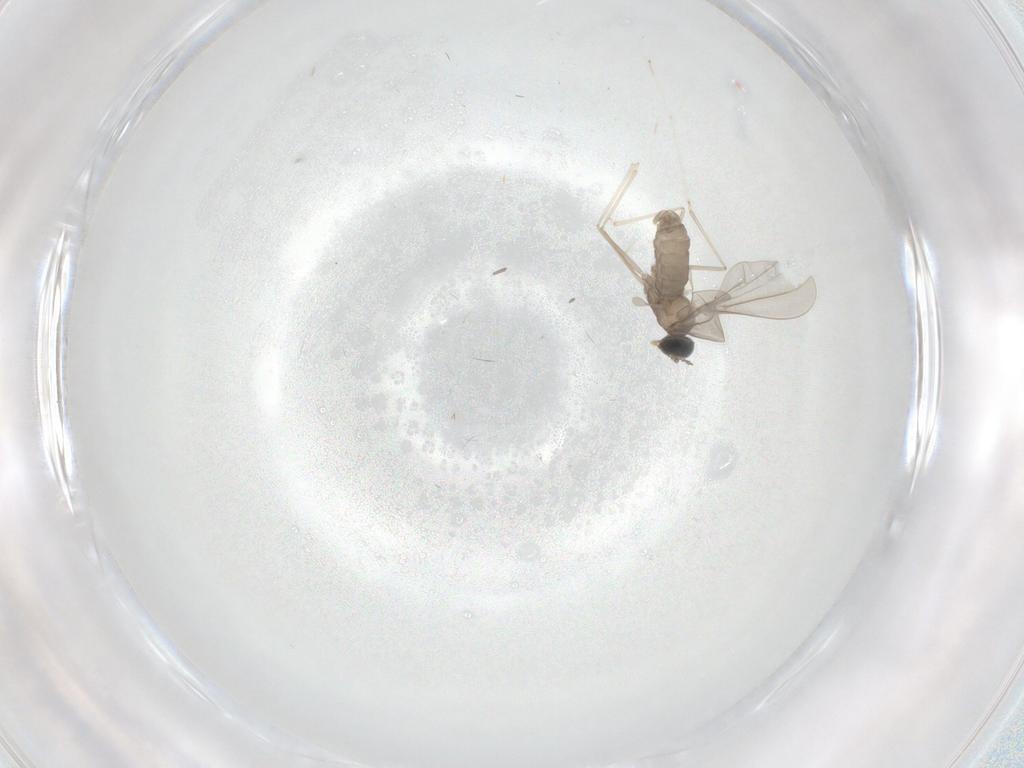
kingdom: Animalia
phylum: Arthropoda
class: Insecta
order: Diptera
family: Cecidomyiidae
